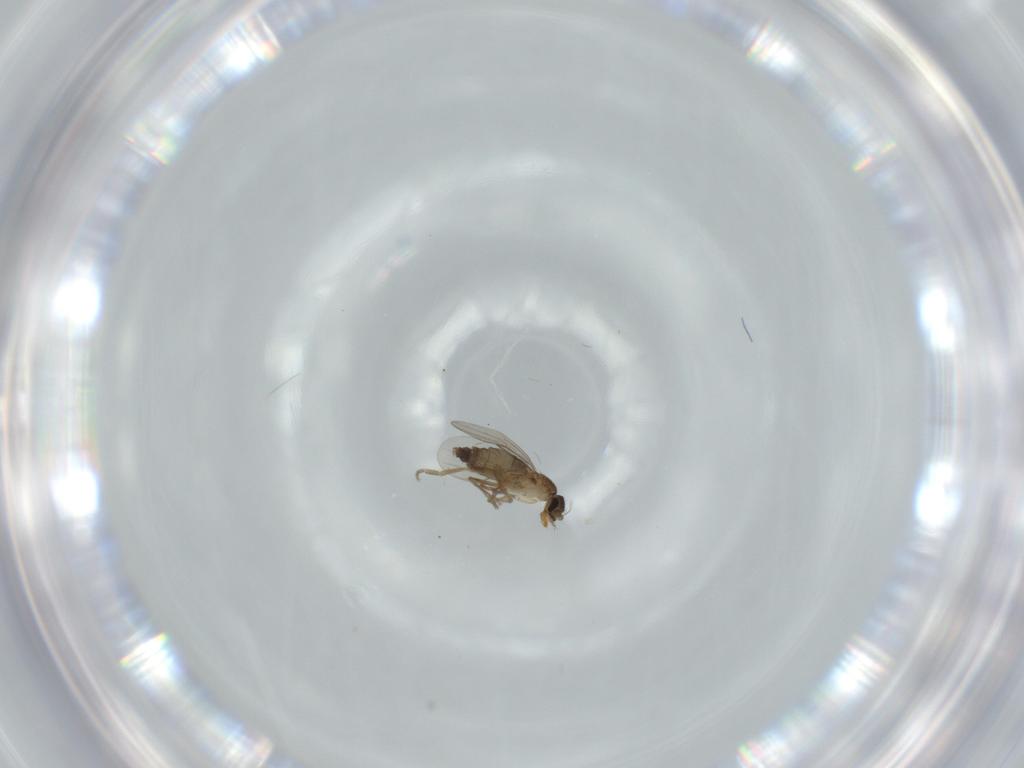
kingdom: Animalia
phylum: Arthropoda
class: Insecta
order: Diptera
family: Phoridae
